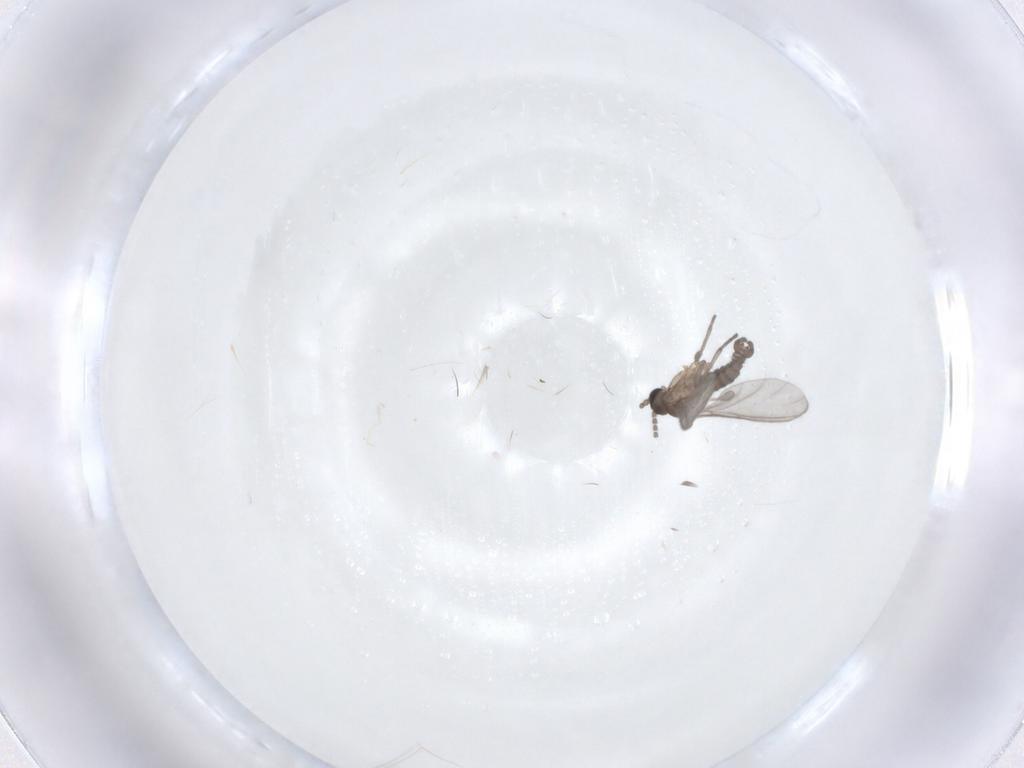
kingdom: Animalia
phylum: Arthropoda
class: Insecta
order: Diptera
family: Sciaridae
